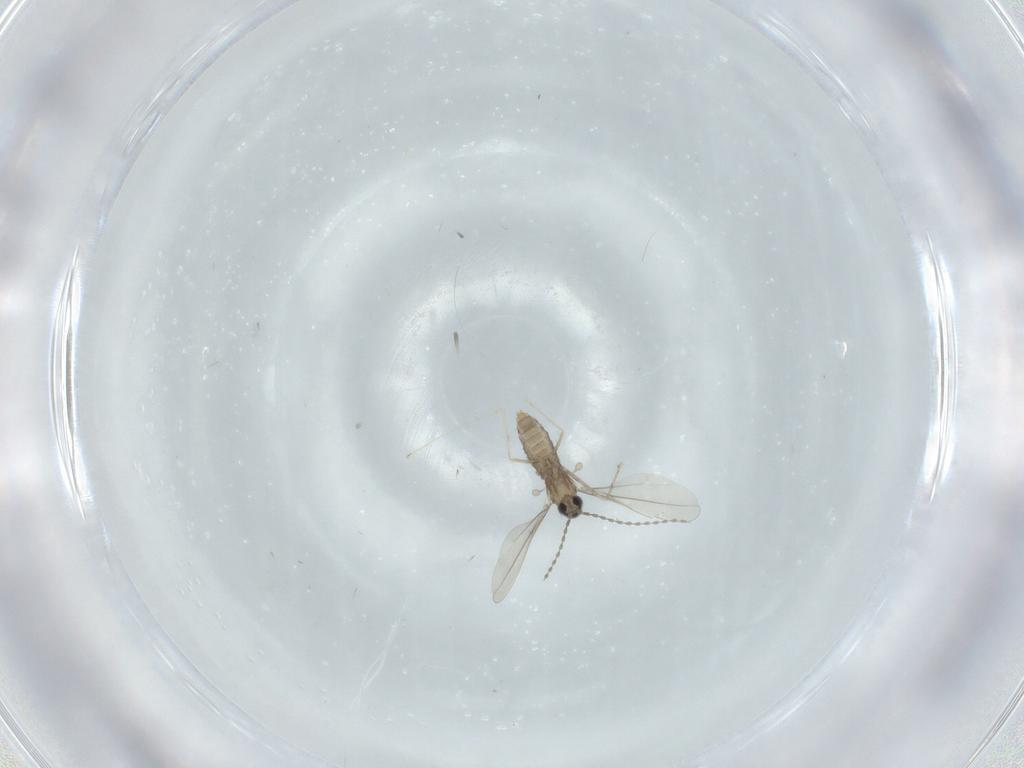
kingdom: Animalia
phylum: Arthropoda
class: Insecta
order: Diptera
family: Cecidomyiidae
